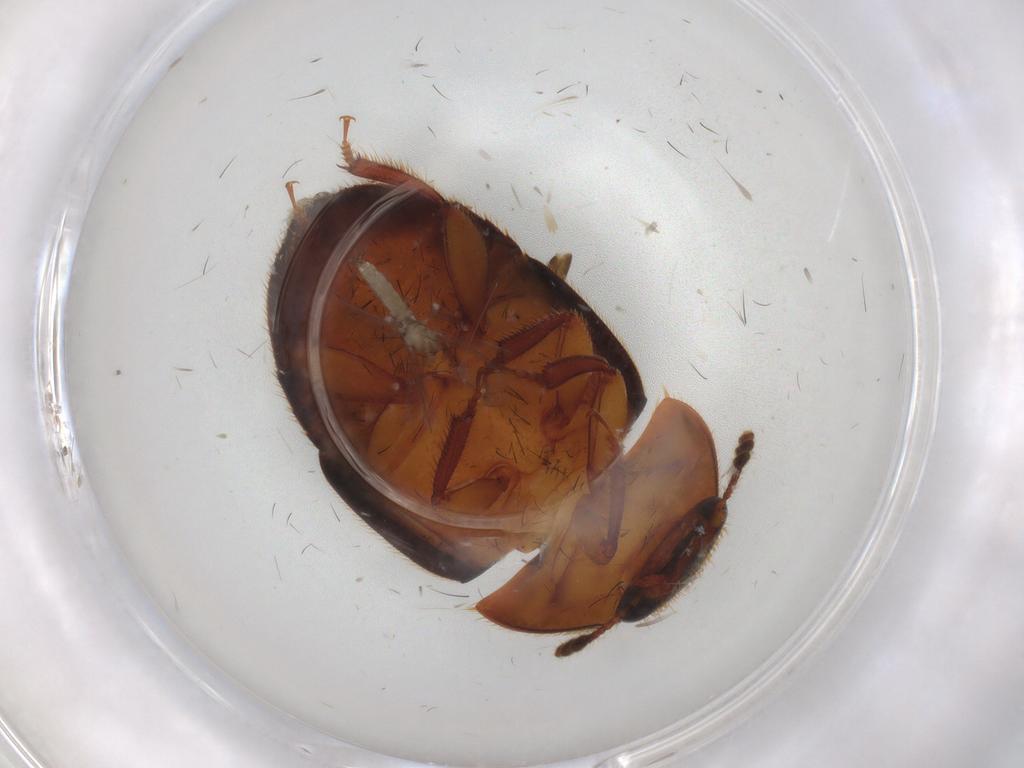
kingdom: Animalia
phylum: Arthropoda
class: Insecta
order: Coleoptera
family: Nitidulidae
